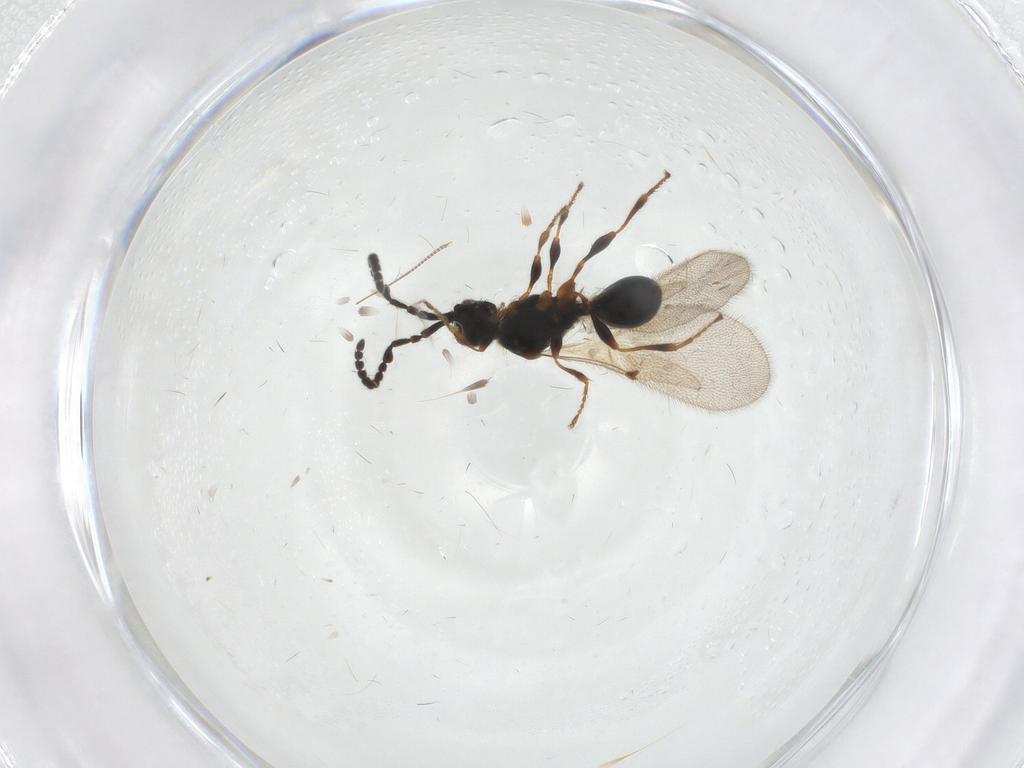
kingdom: Animalia
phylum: Arthropoda
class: Insecta
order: Hymenoptera
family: Diapriidae
